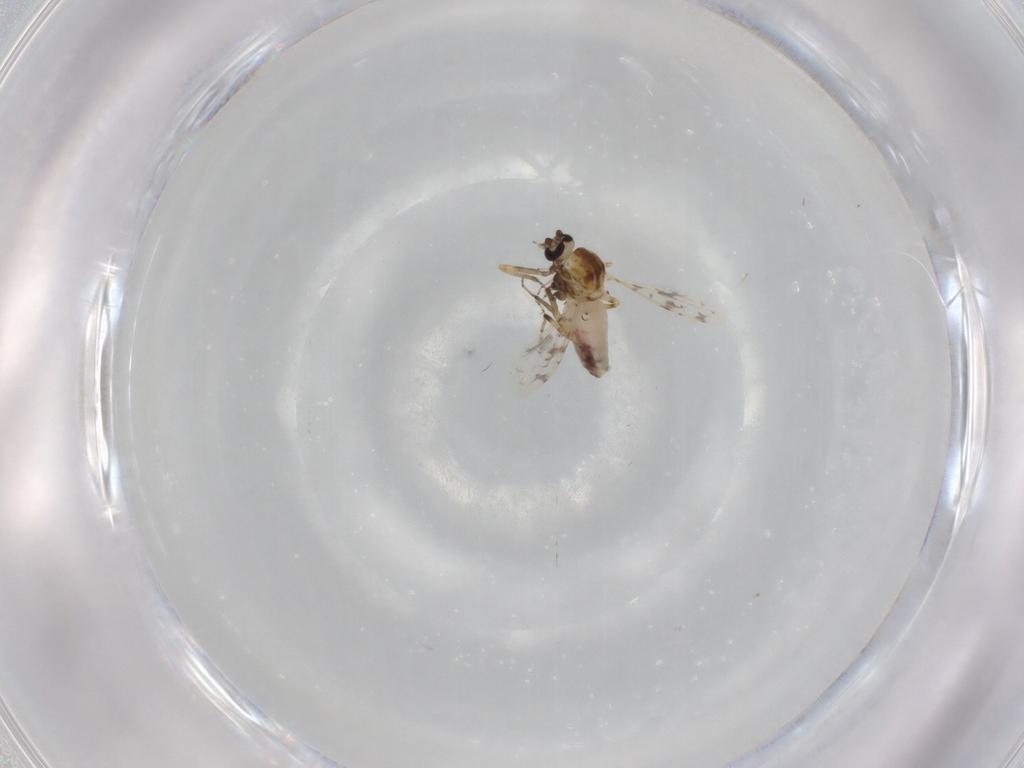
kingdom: Animalia
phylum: Arthropoda
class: Insecta
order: Diptera
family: Ceratopogonidae
